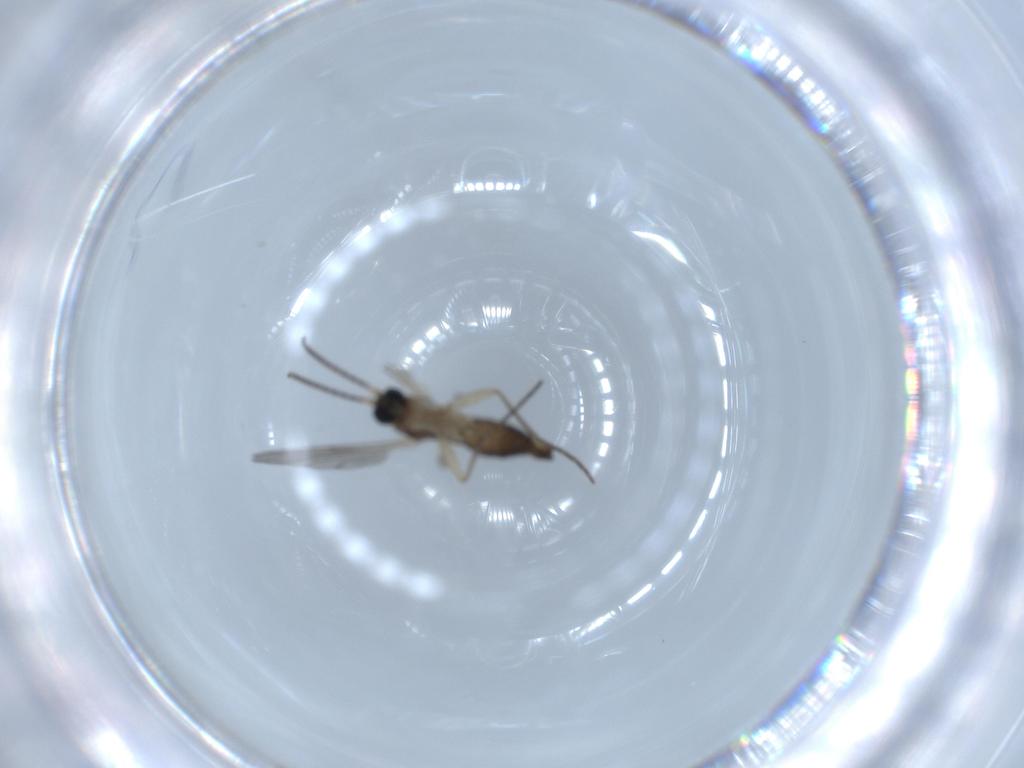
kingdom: Animalia
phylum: Arthropoda
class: Insecta
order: Diptera
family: Sciaridae
